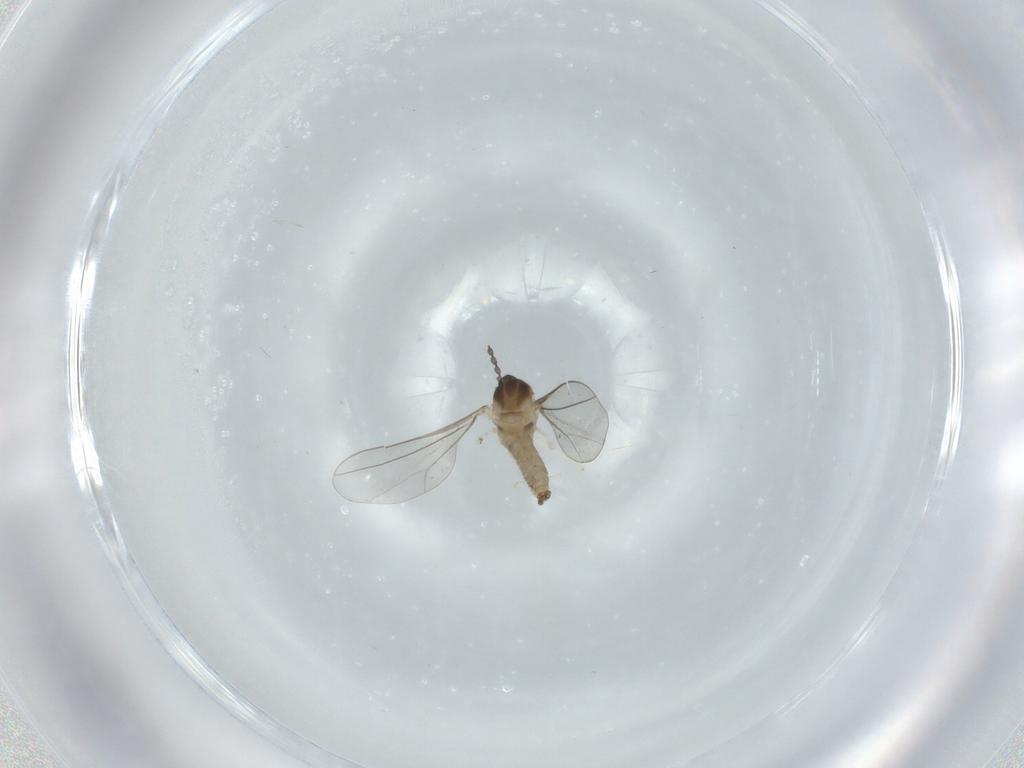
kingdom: Animalia
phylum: Arthropoda
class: Insecta
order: Diptera
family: Cecidomyiidae
